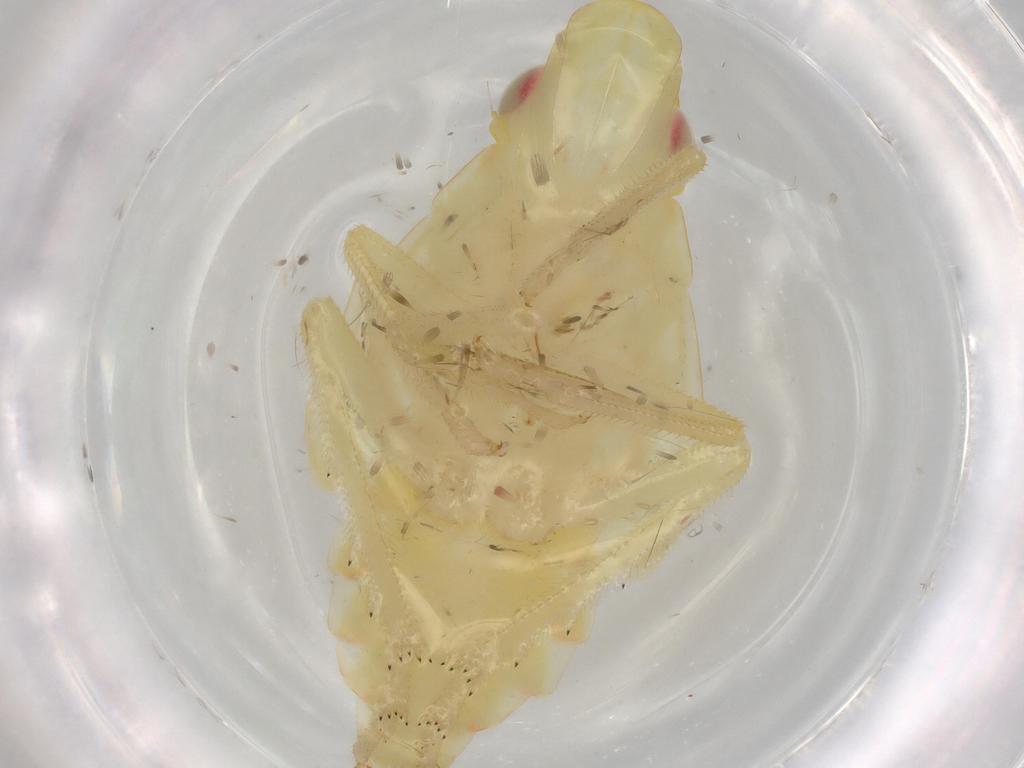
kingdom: Animalia
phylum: Arthropoda
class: Insecta
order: Hemiptera
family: Tropiduchidae
